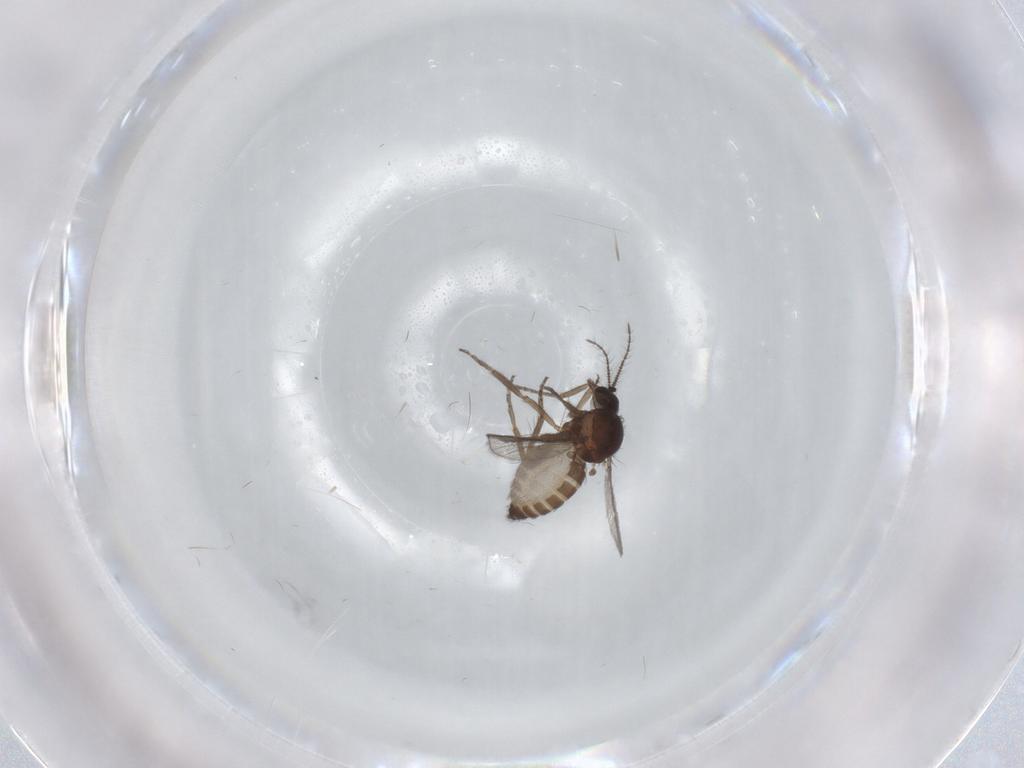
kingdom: Animalia
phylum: Arthropoda
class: Insecta
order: Diptera
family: Ceratopogonidae
